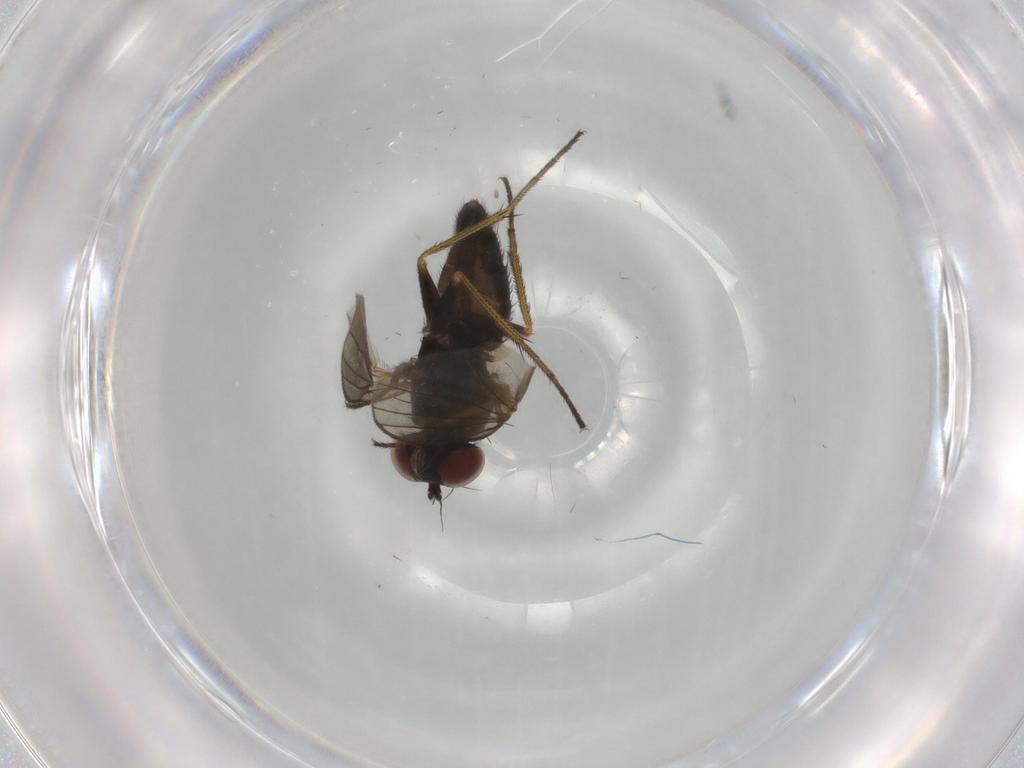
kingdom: Animalia
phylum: Arthropoda
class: Insecta
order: Diptera
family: Dolichopodidae
